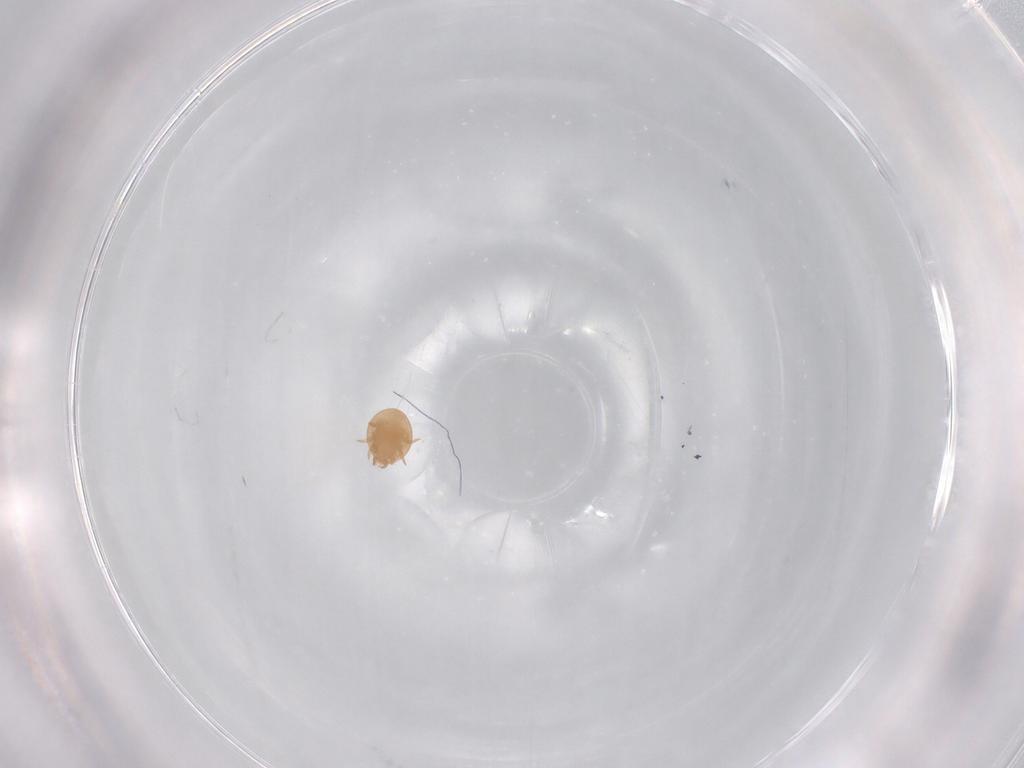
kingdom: Animalia
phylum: Arthropoda
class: Arachnida
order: Mesostigmata
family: Trematuridae
